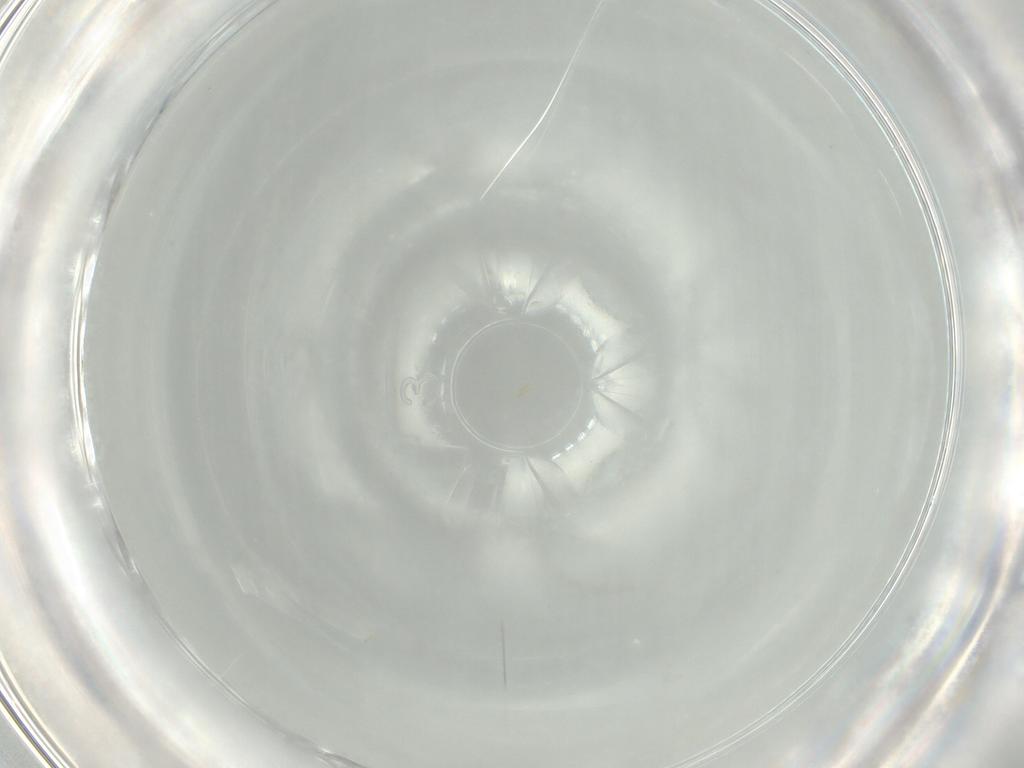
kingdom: Animalia
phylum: Arthropoda
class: Insecta
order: Hymenoptera
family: Vespidae
